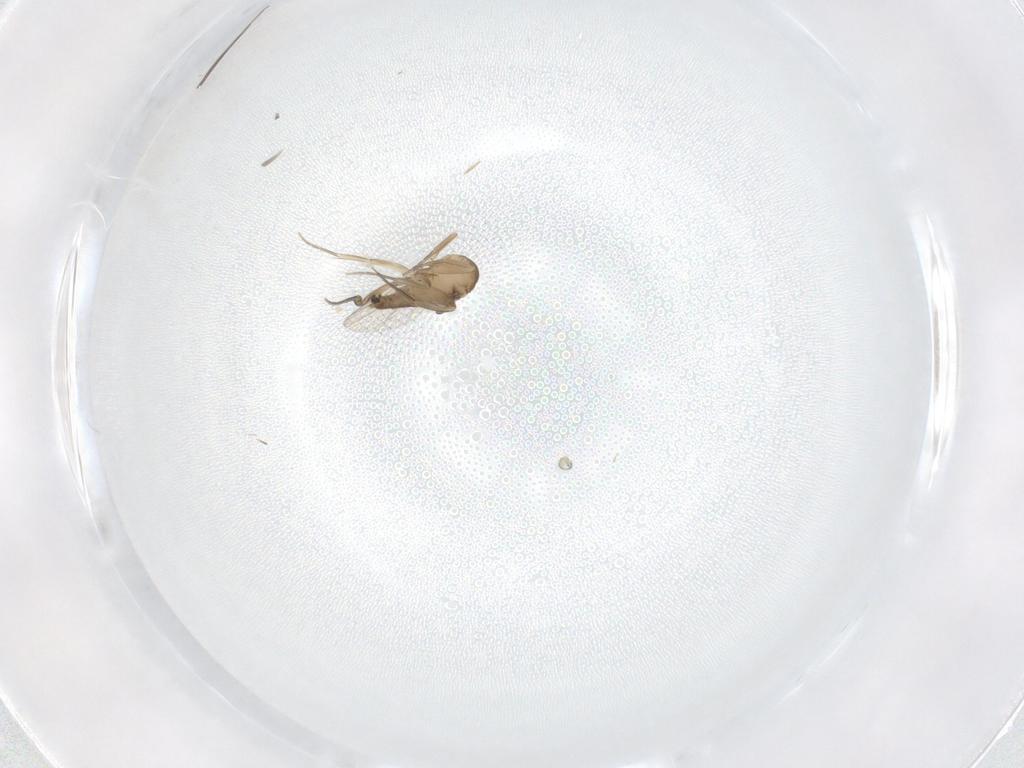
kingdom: Animalia
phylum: Arthropoda
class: Insecta
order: Diptera
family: Phoridae
